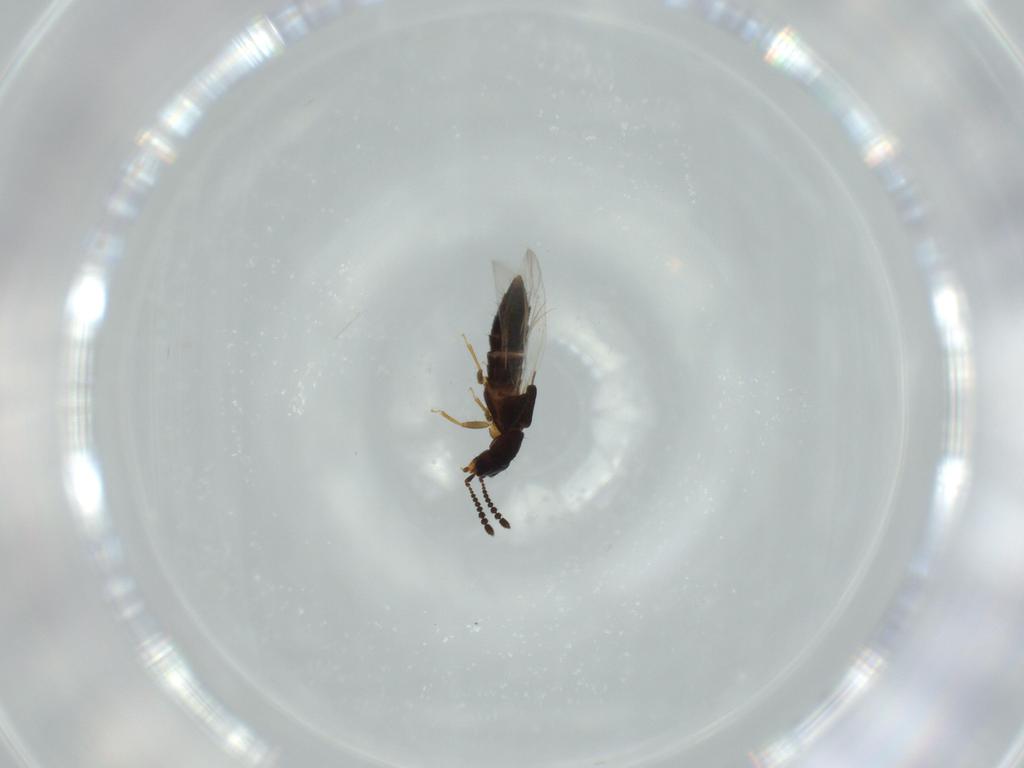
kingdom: Animalia
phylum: Arthropoda
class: Insecta
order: Coleoptera
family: Staphylinidae
